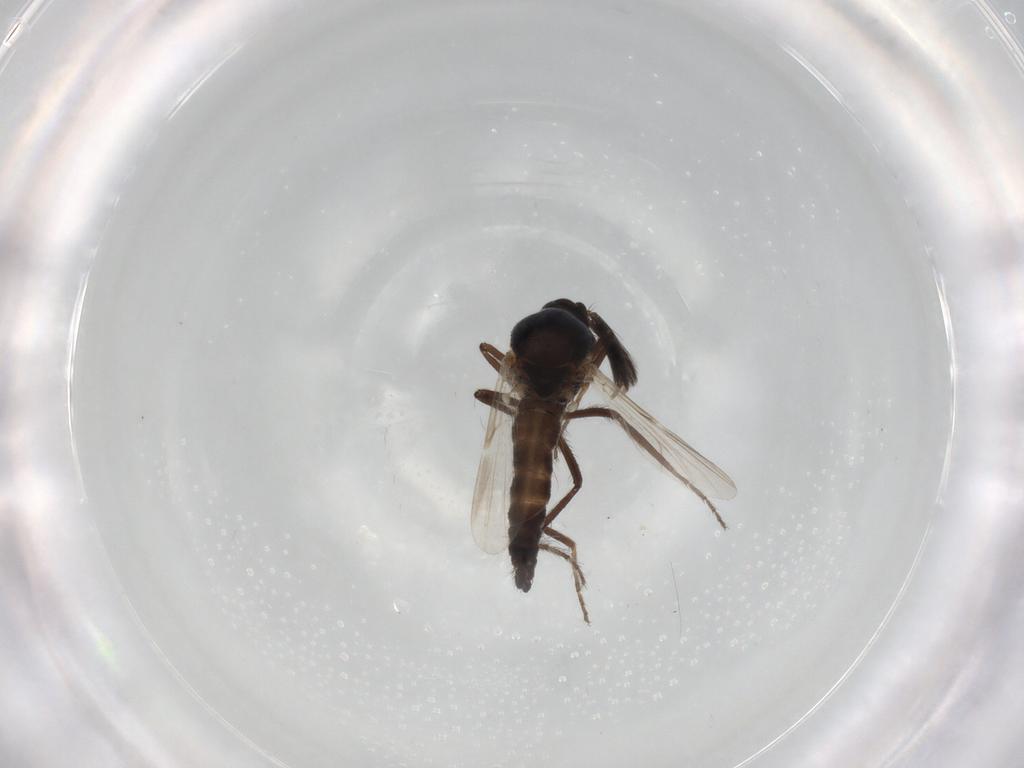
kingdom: Animalia
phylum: Arthropoda
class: Insecta
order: Diptera
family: Ceratopogonidae
